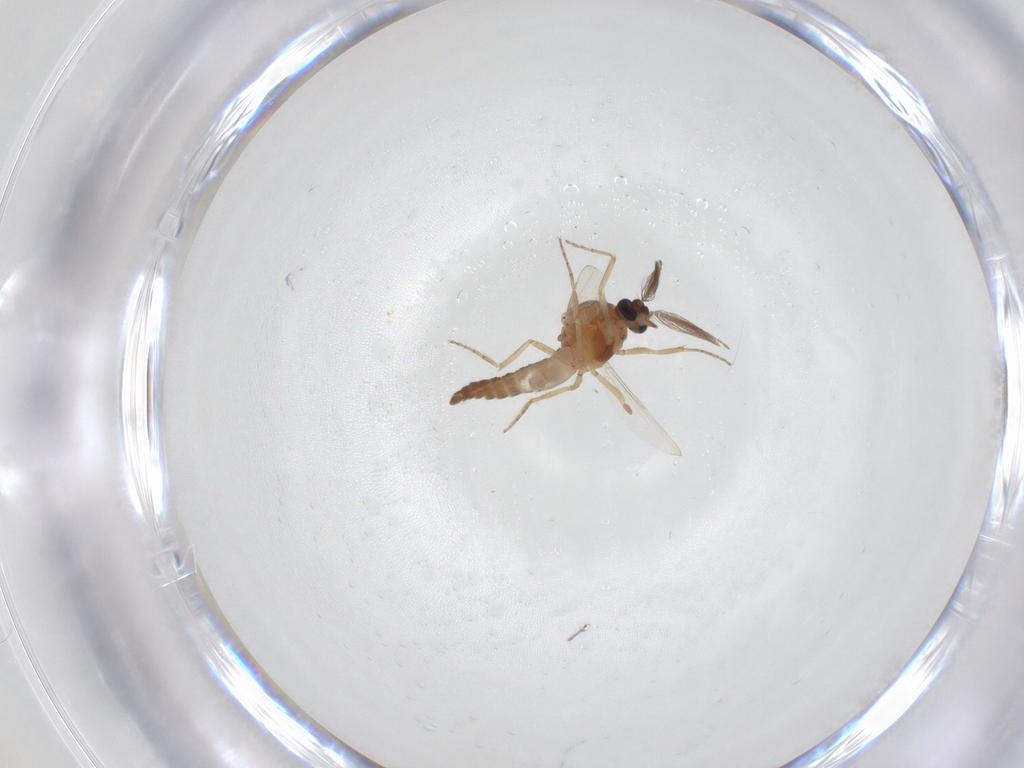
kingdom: Animalia
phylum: Arthropoda
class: Insecta
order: Diptera
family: Ceratopogonidae
